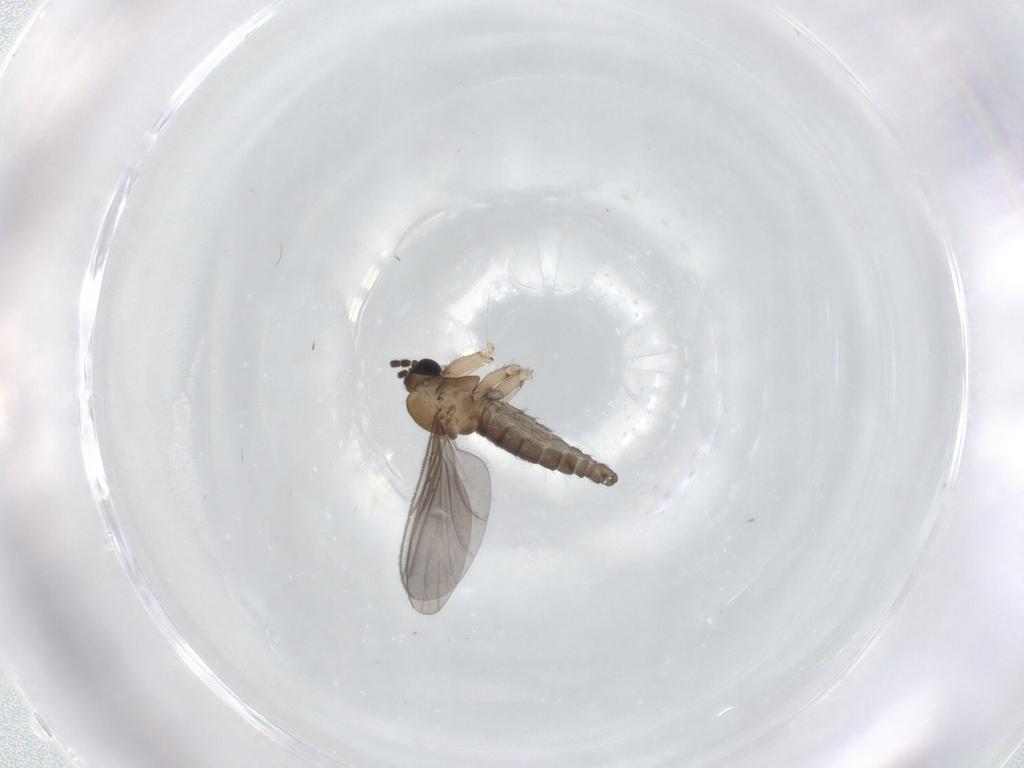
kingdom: Animalia
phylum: Arthropoda
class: Insecta
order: Diptera
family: Sciaridae
